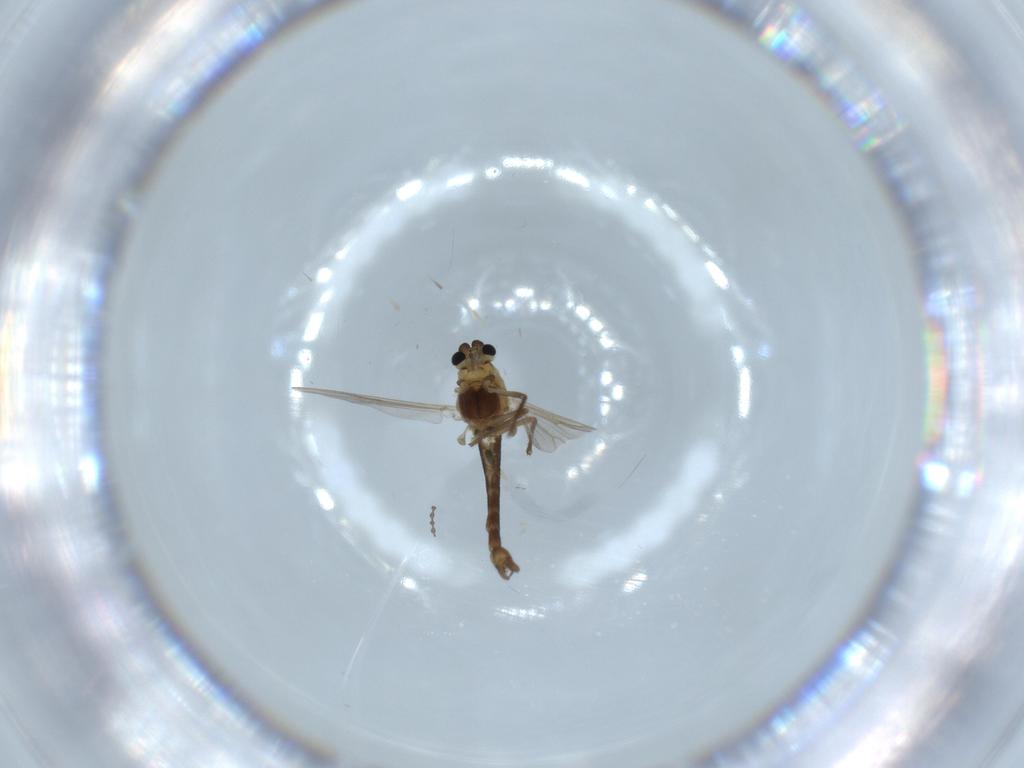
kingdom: Animalia
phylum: Arthropoda
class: Insecta
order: Diptera
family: Chironomidae
